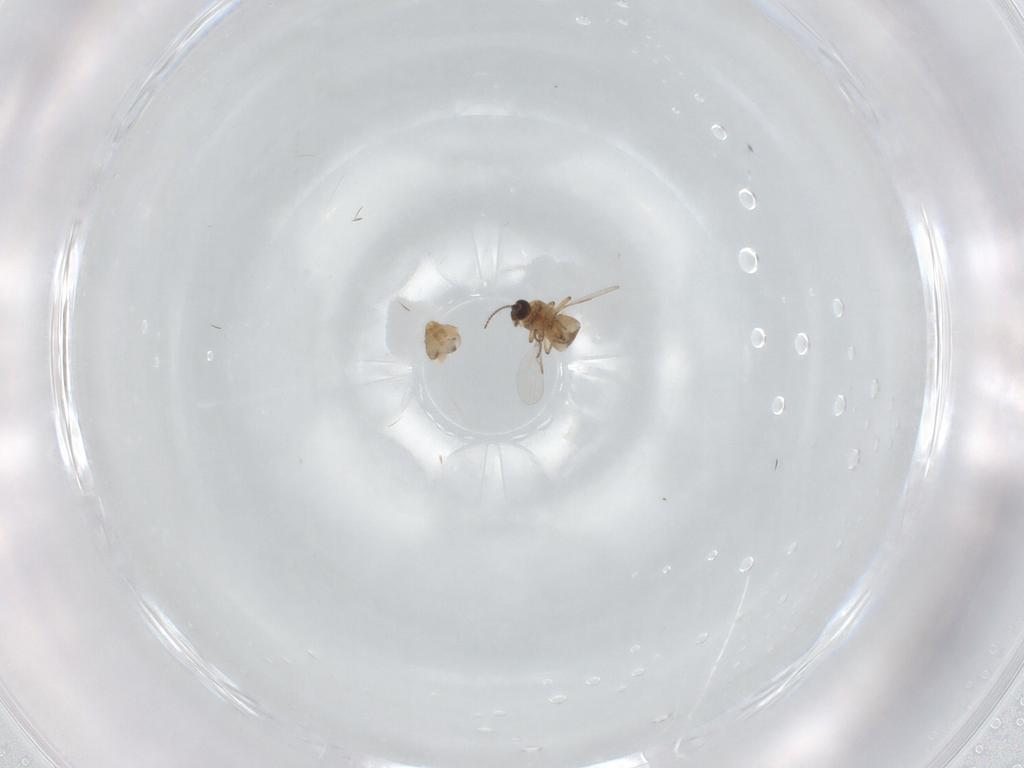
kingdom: Animalia
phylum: Arthropoda
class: Insecta
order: Diptera
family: Ceratopogonidae
